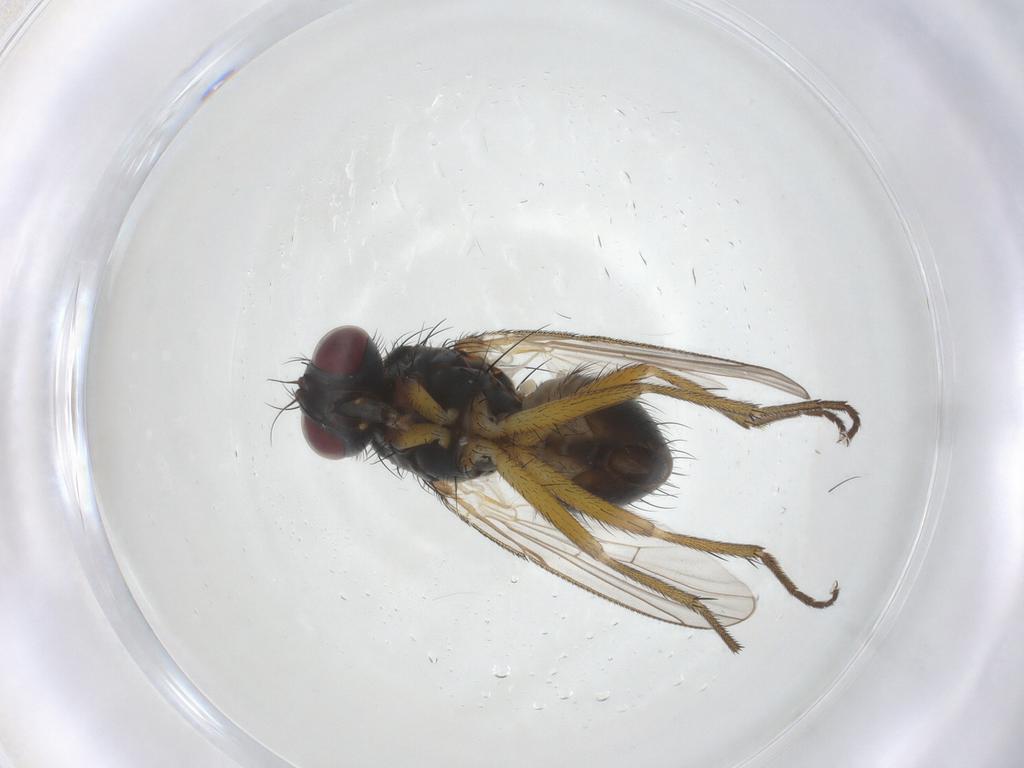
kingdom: Animalia
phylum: Arthropoda
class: Insecta
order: Diptera
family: Muscidae
